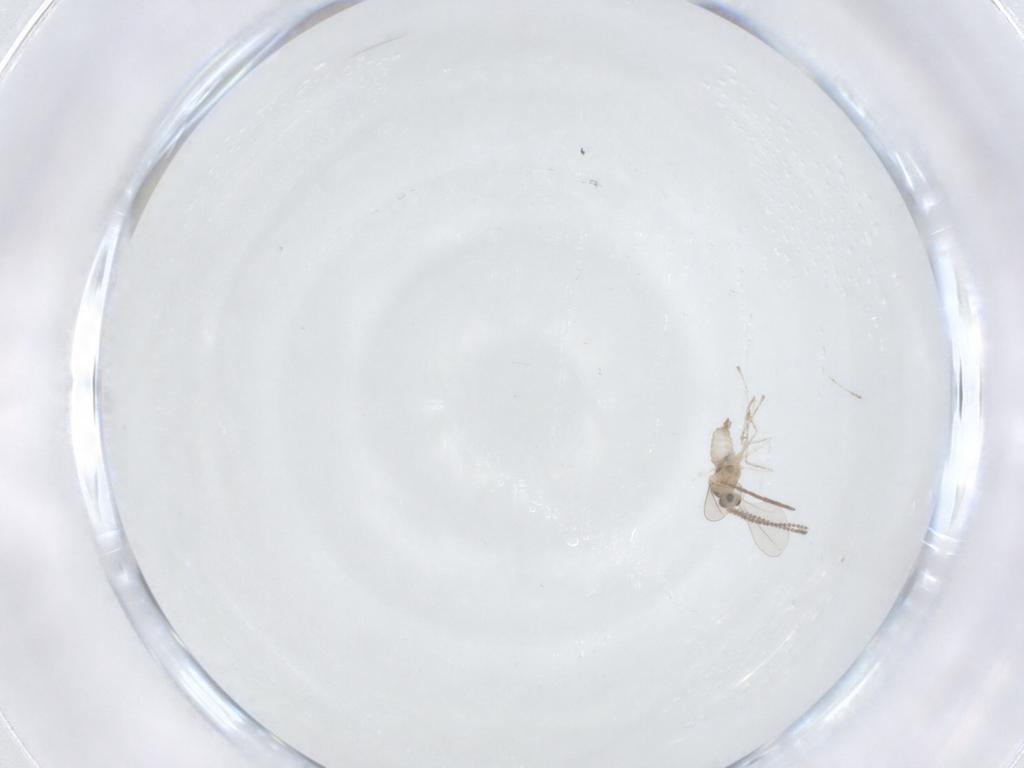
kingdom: Animalia
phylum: Arthropoda
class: Insecta
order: Diptera
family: Cecidomyiidae
